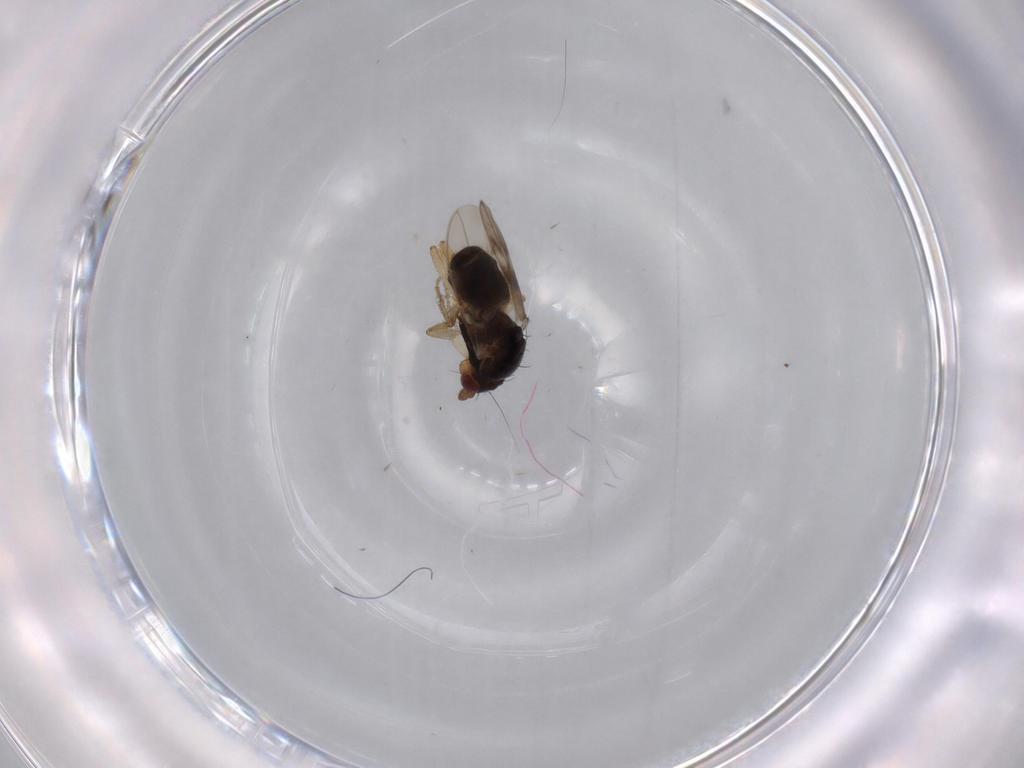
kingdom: Animalia
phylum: Arthropoda
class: Insecta
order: Diptera
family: Sphaeroceridae
